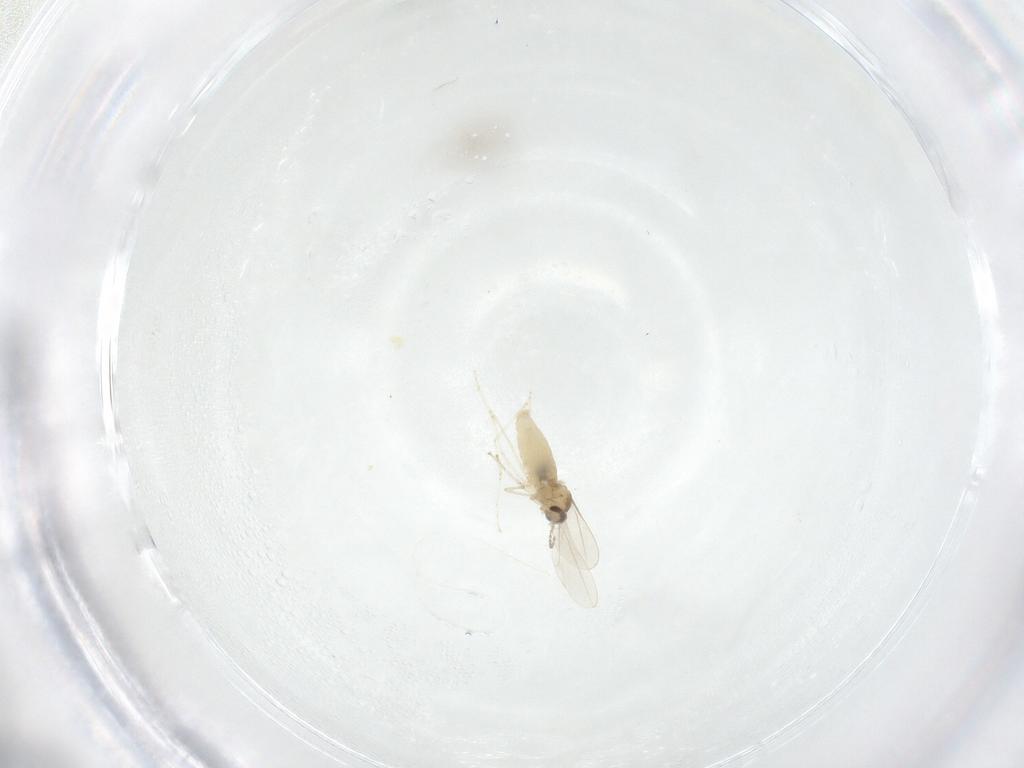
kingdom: Animalia
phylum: Arthropoda
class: Insecta
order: Diptera
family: Cecidomyiidae
